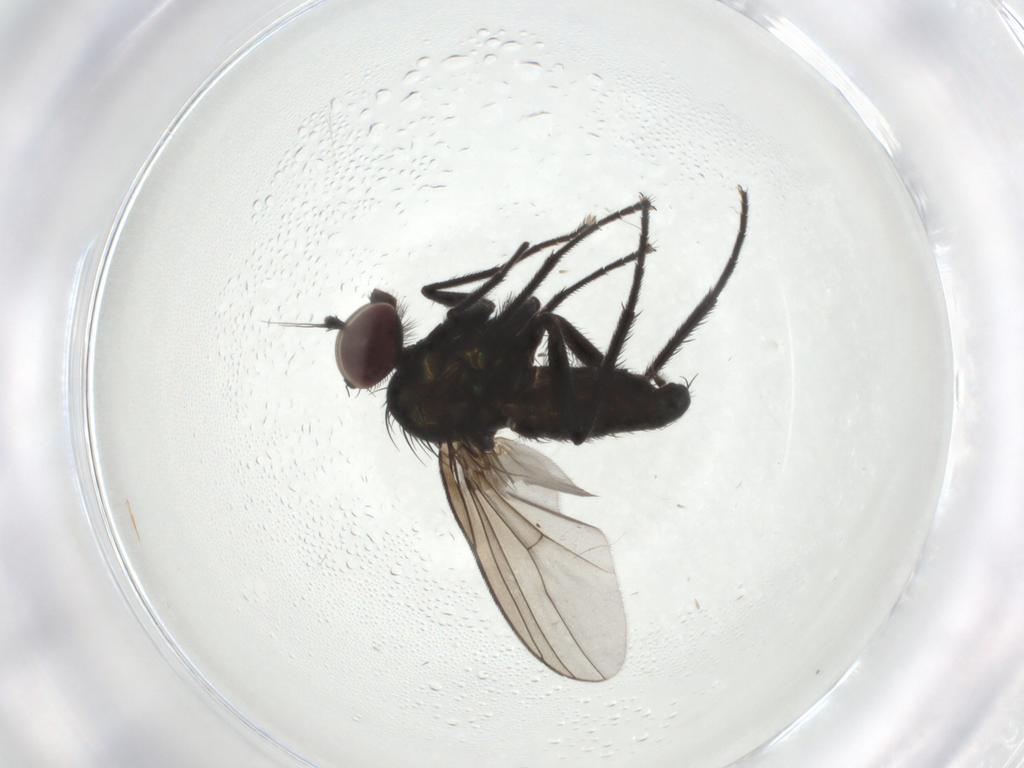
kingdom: Animalia
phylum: Arthropoda
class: Insecta
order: Diptera
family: Dolichopodidae
